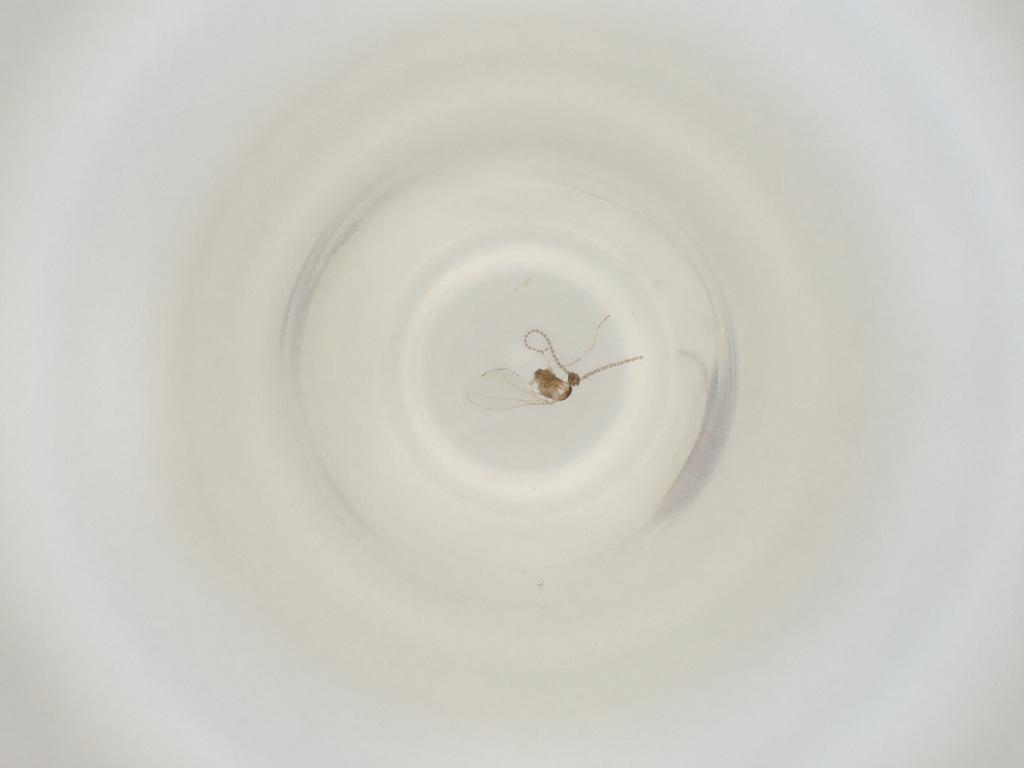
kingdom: Animalia
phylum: Arthropoda
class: Insecta
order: Diptera
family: Cecidomyiidae
